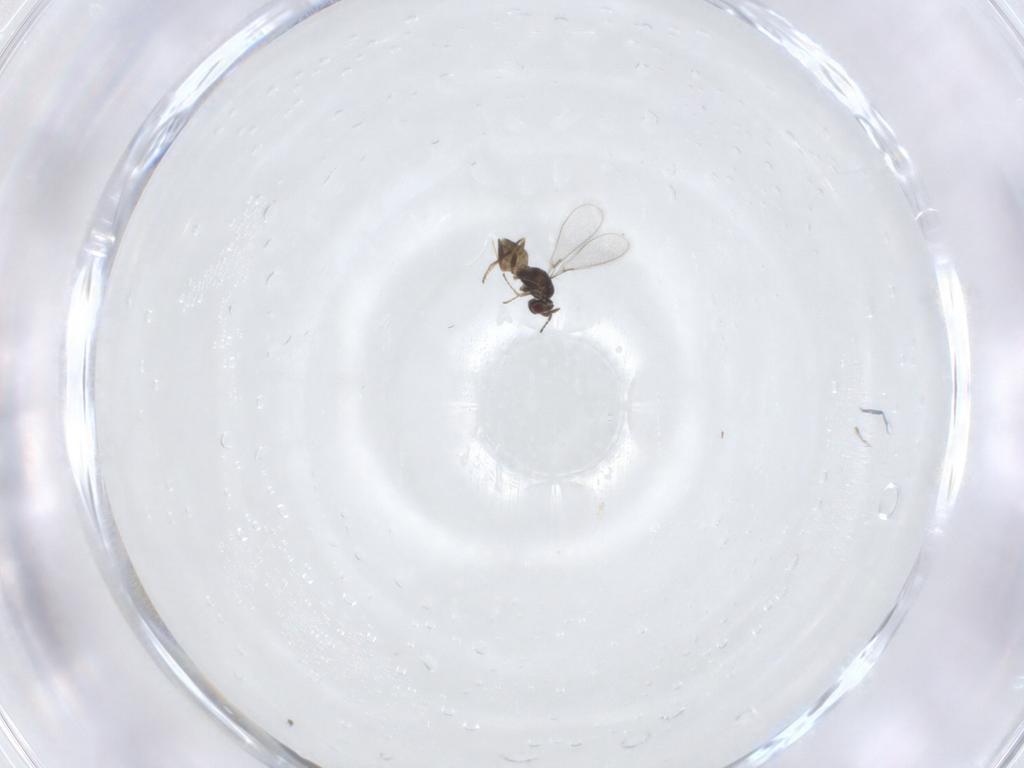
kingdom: Animalia
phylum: Arthropoda
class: Insecta
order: Hymenoptera
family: Mymaridae
